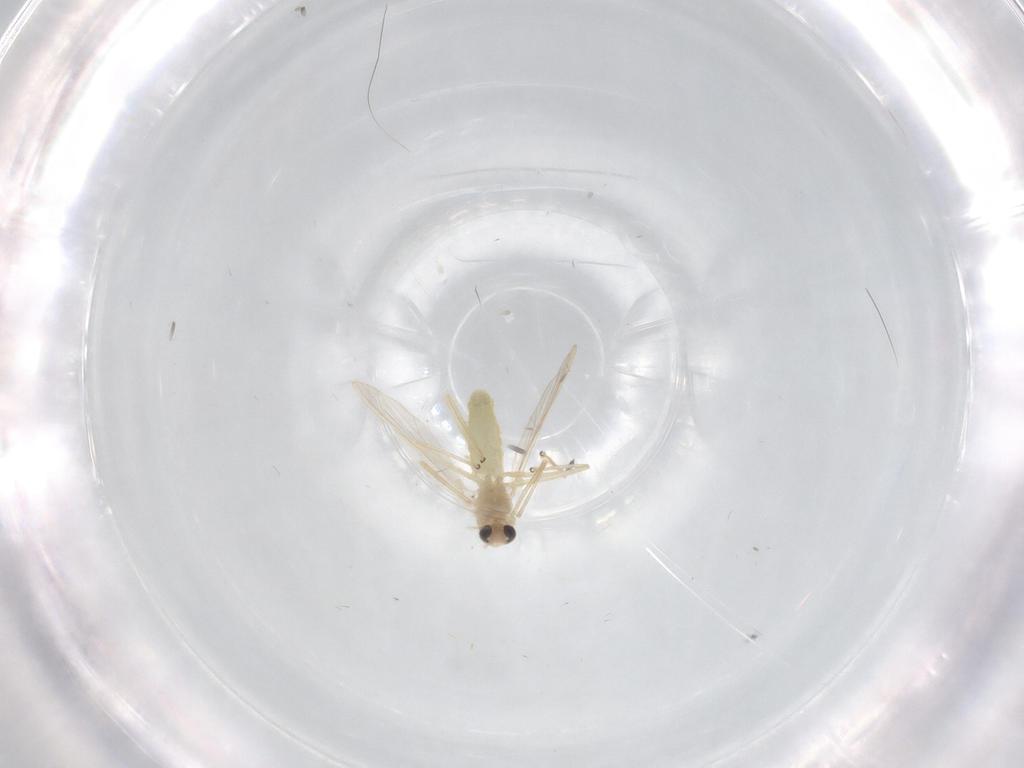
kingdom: Animalia
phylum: Arthropoda
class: Insecta
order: Diptera
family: Chironomidae
